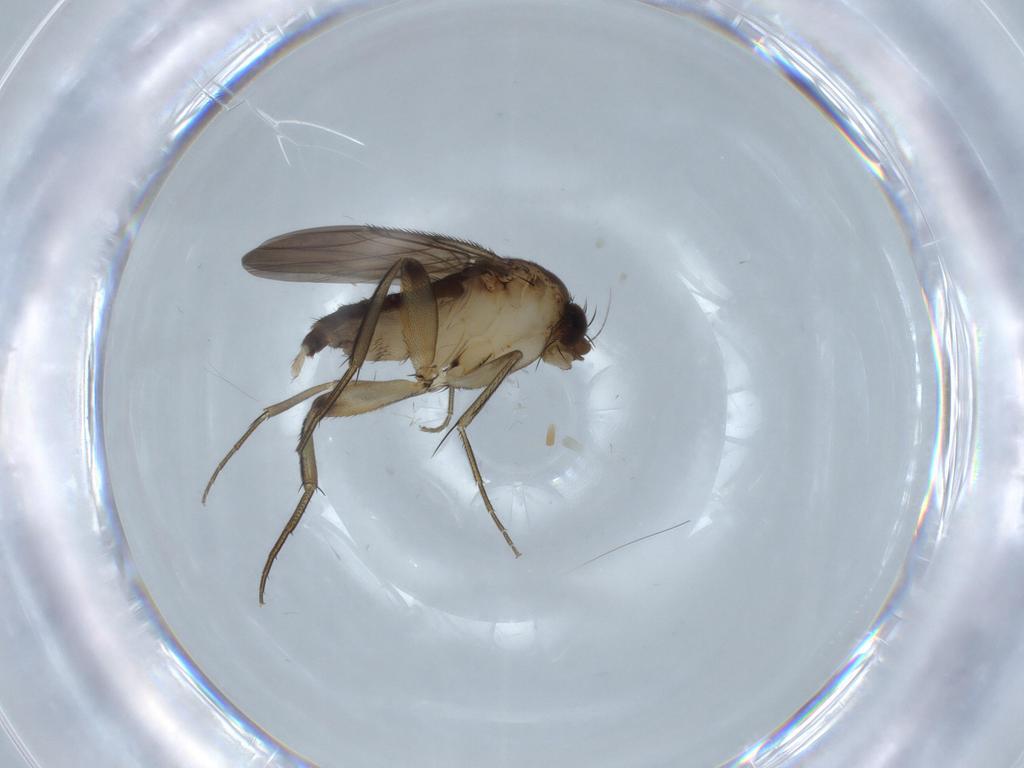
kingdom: Animalia
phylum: Arthropoda
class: Insecta
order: Diptera
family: Phoridae
